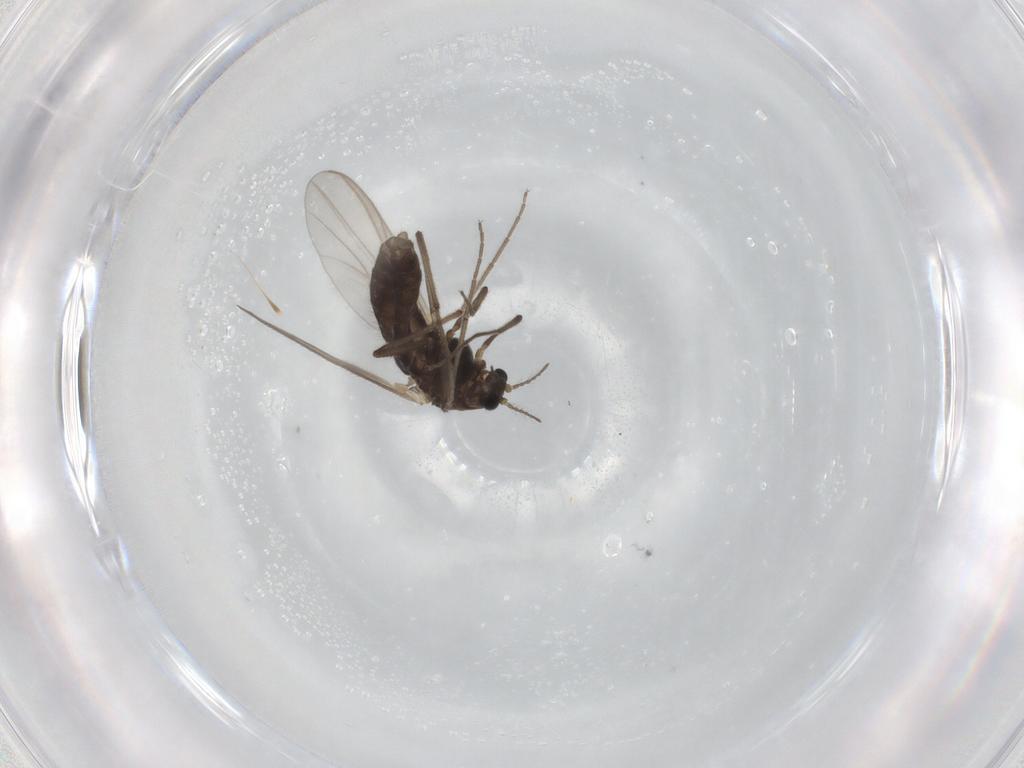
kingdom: Animalia
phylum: Arthropoda
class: Insecta
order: Diptera
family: Chironomidae
